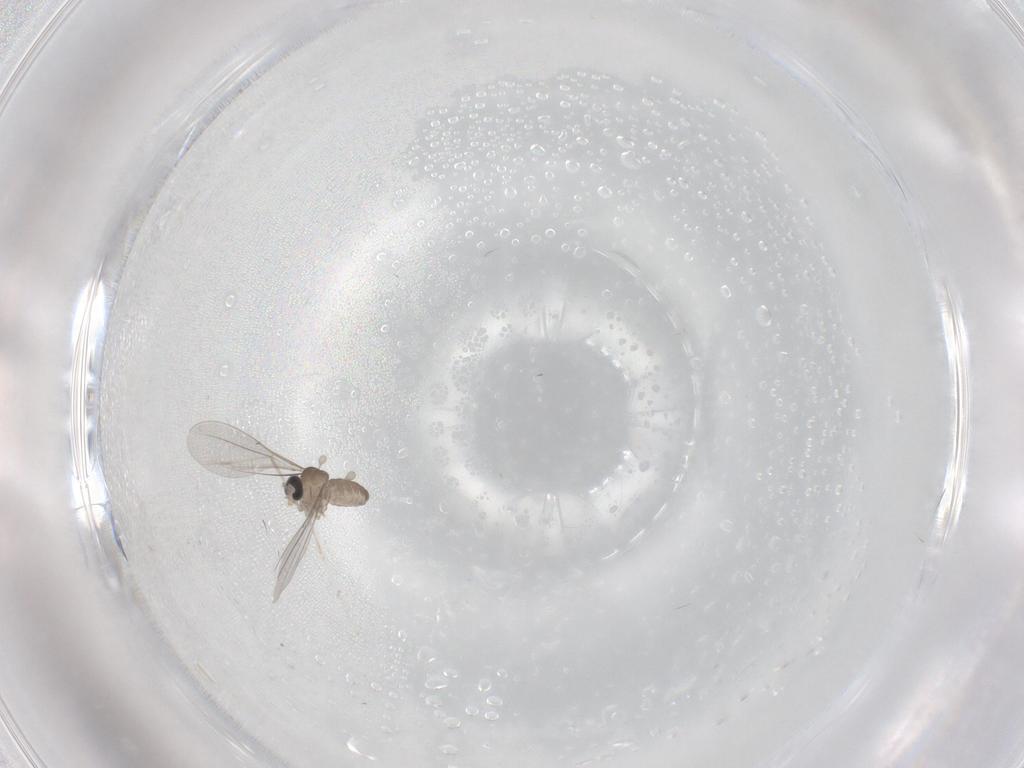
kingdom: Animalia
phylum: Arthropoda
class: Insecta
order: Diptera
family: Cecidomyiidae
